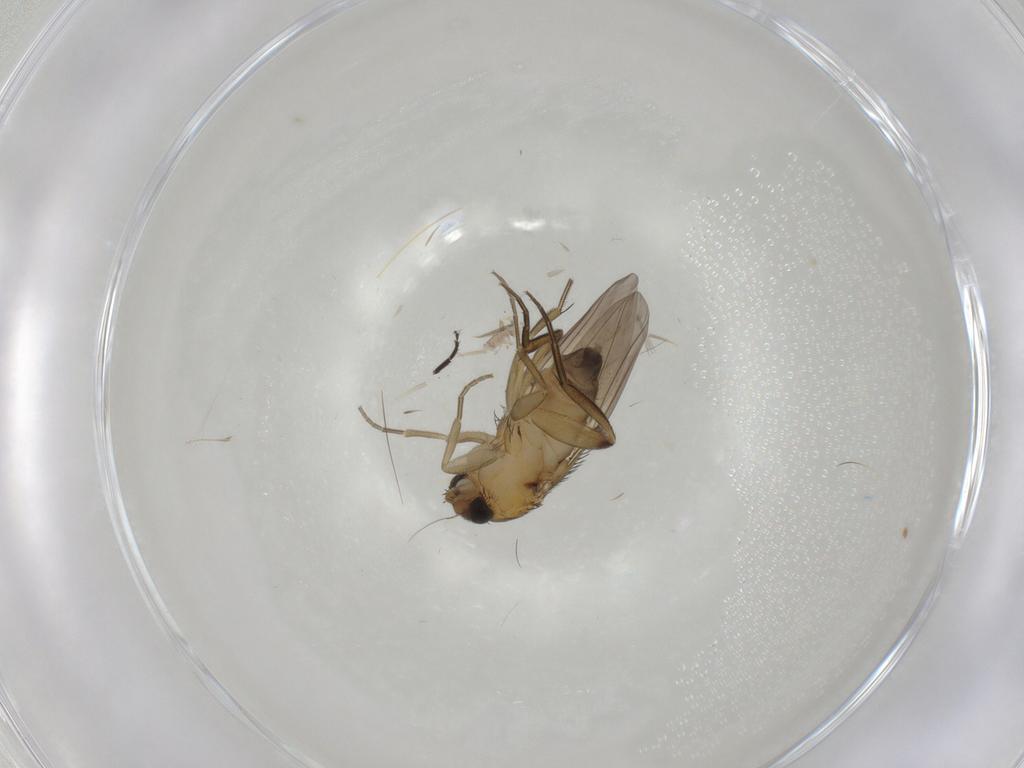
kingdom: Animalia
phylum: Arthropoda
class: Insecta
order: Diptera
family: Phoridae
